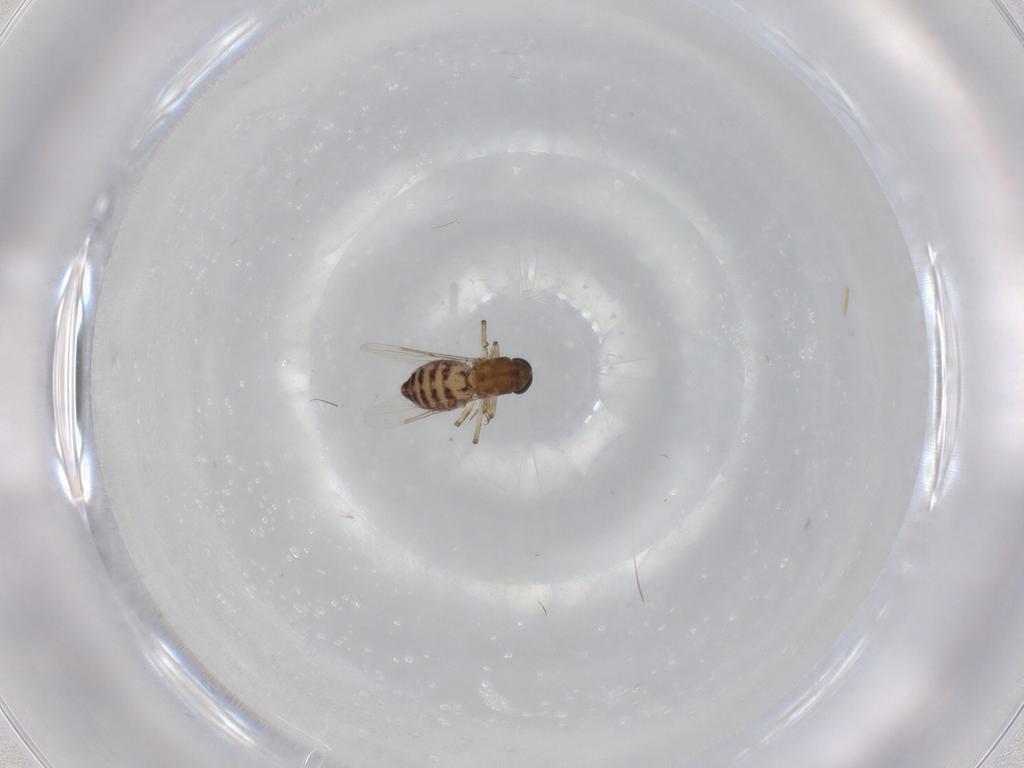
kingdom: Animalia
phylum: Arthropoda
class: Insecta
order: Diptera
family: Ceratopogonidae
